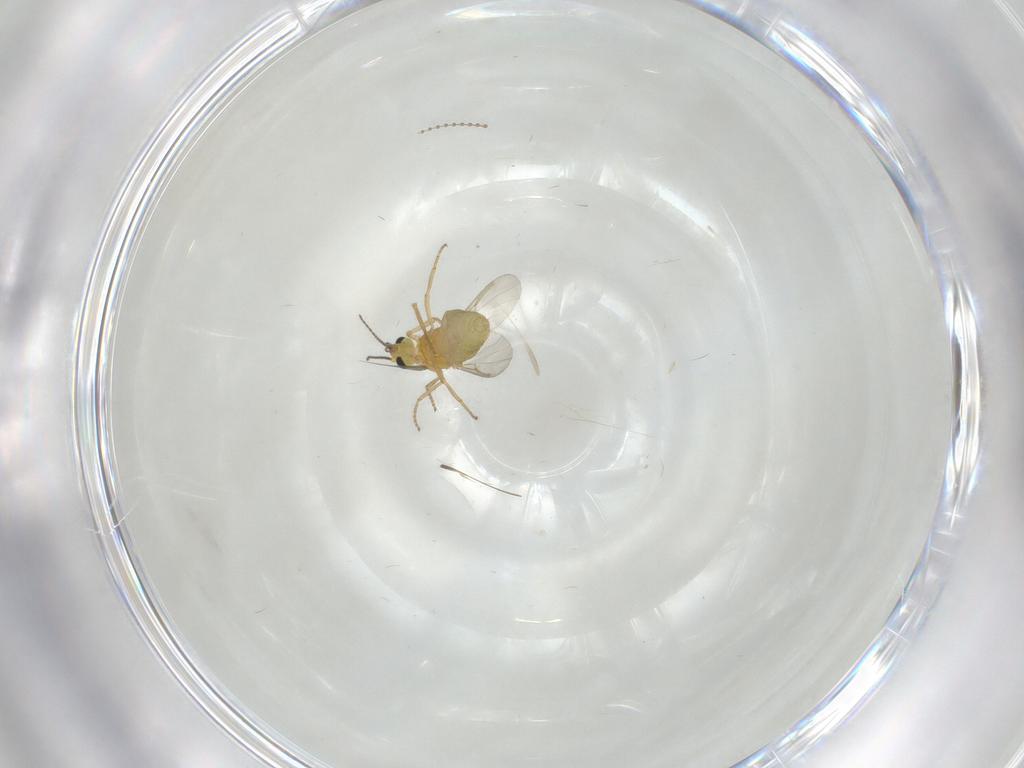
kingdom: Animalia
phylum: Arthropoda
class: Insecta
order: Diptera
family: Ceratopogonidae
